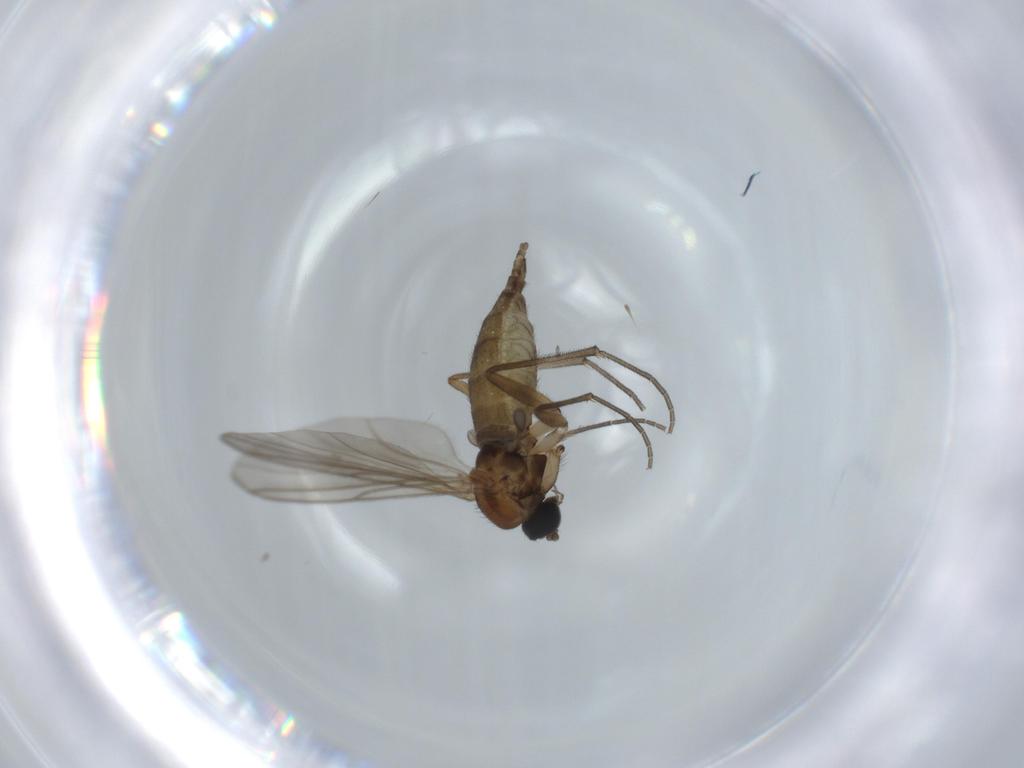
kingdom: Animalia
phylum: Arthropoda
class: Insecta
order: Diptera
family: Sciaridae
